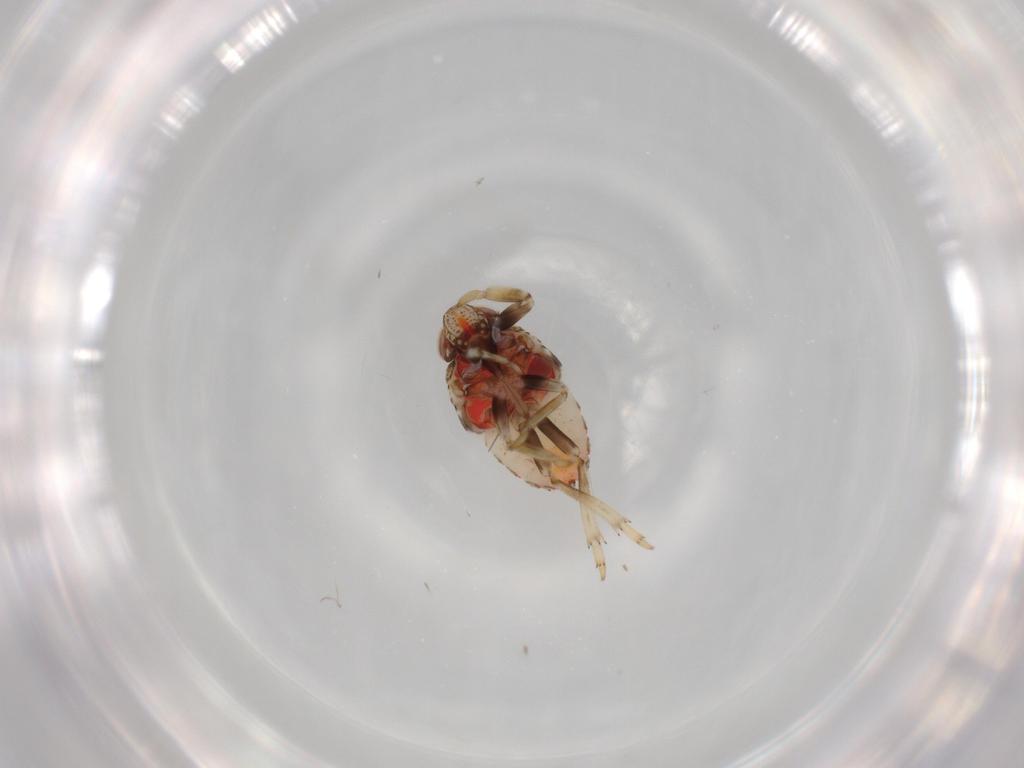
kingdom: Animalia
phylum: Arthropoda
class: Insecta
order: Hemiptera
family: Issidae
